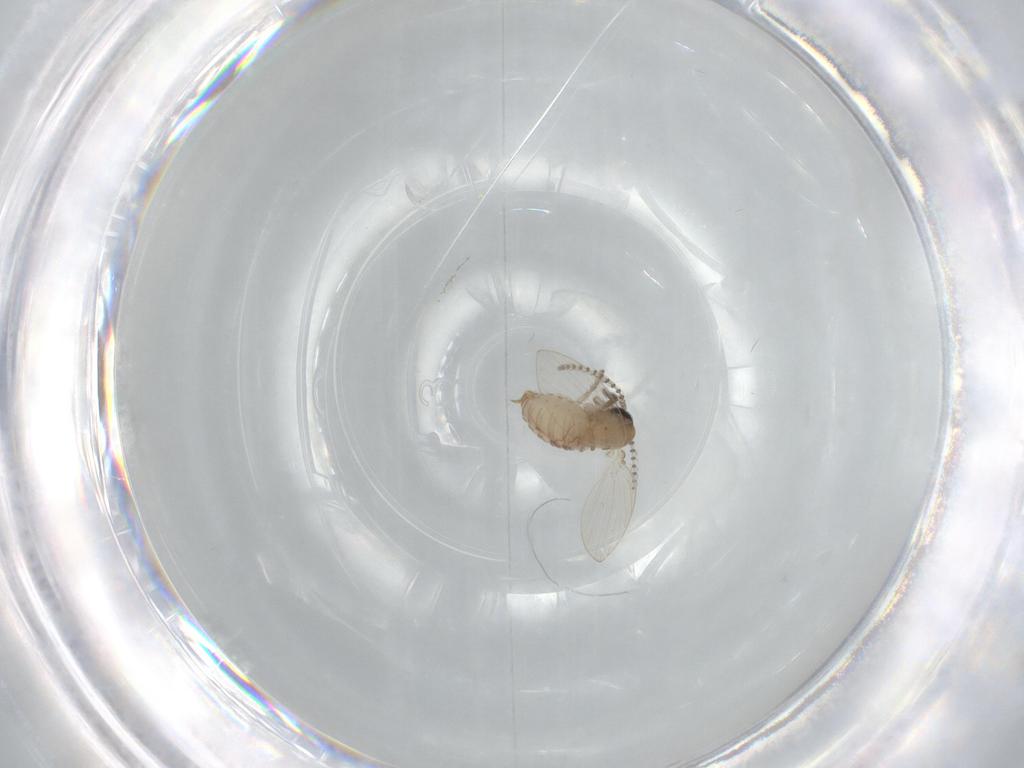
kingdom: Animalia
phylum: Arthropoda
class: Insecta
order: Diptera
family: Psychodidae
